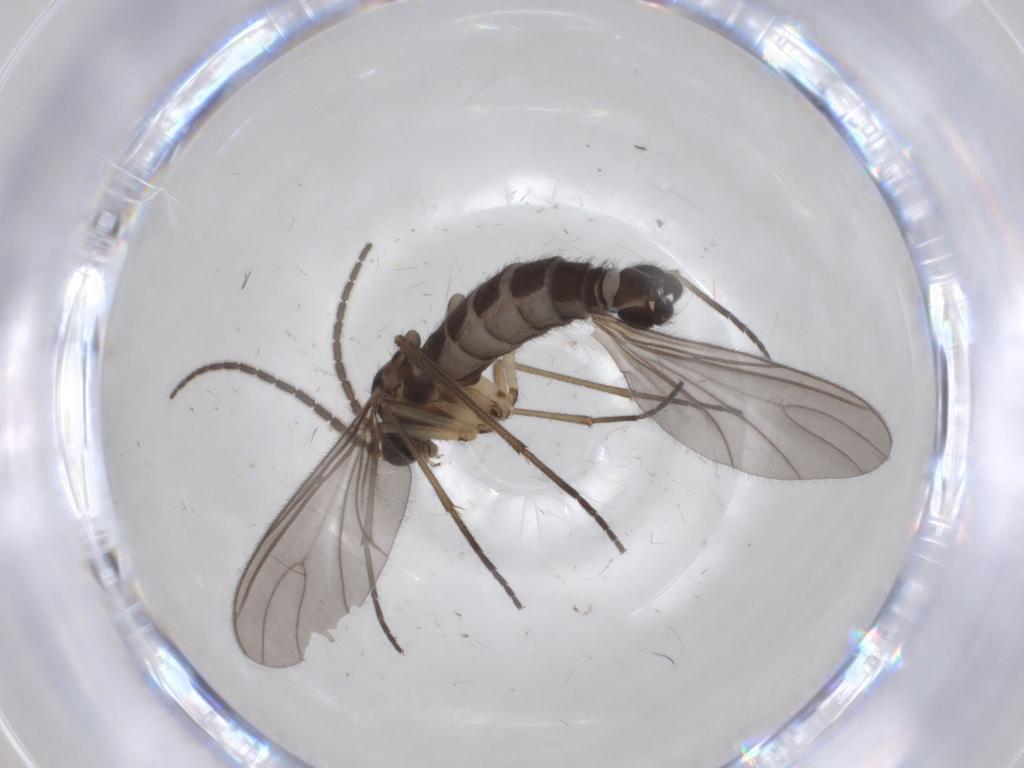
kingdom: Animalia
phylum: Arthropoda
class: Insecta
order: Diptera
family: Sciaridae
